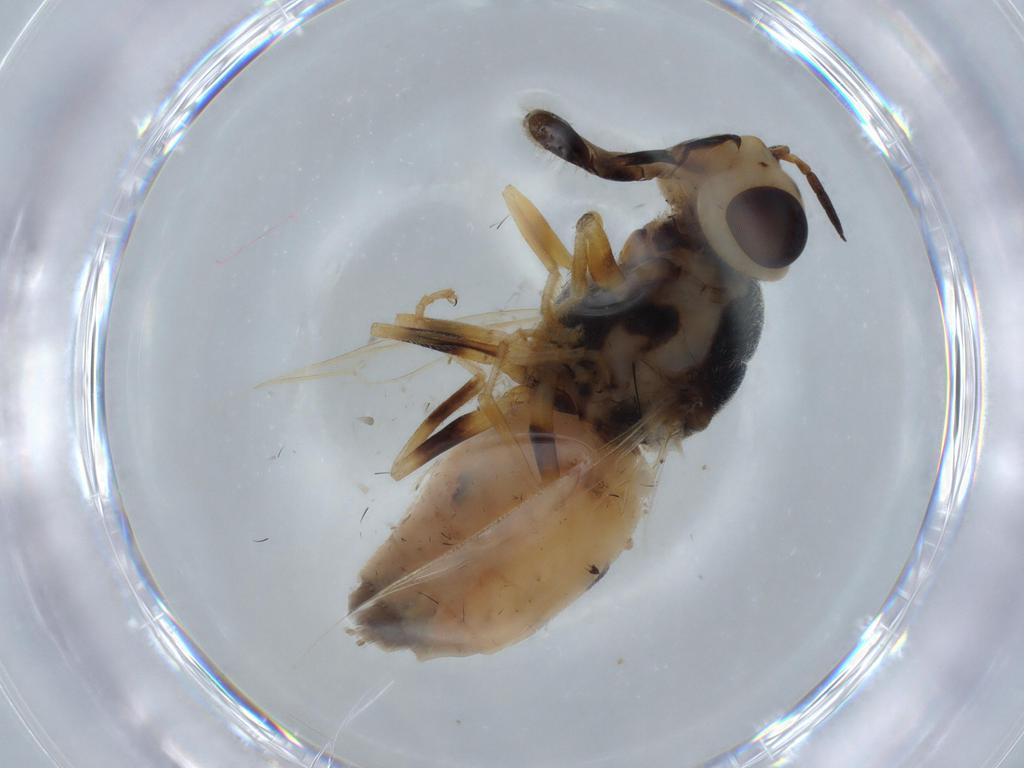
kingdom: Animalia
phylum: Arthropoda
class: Insecta
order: Diptera
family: Stratiomyidae
